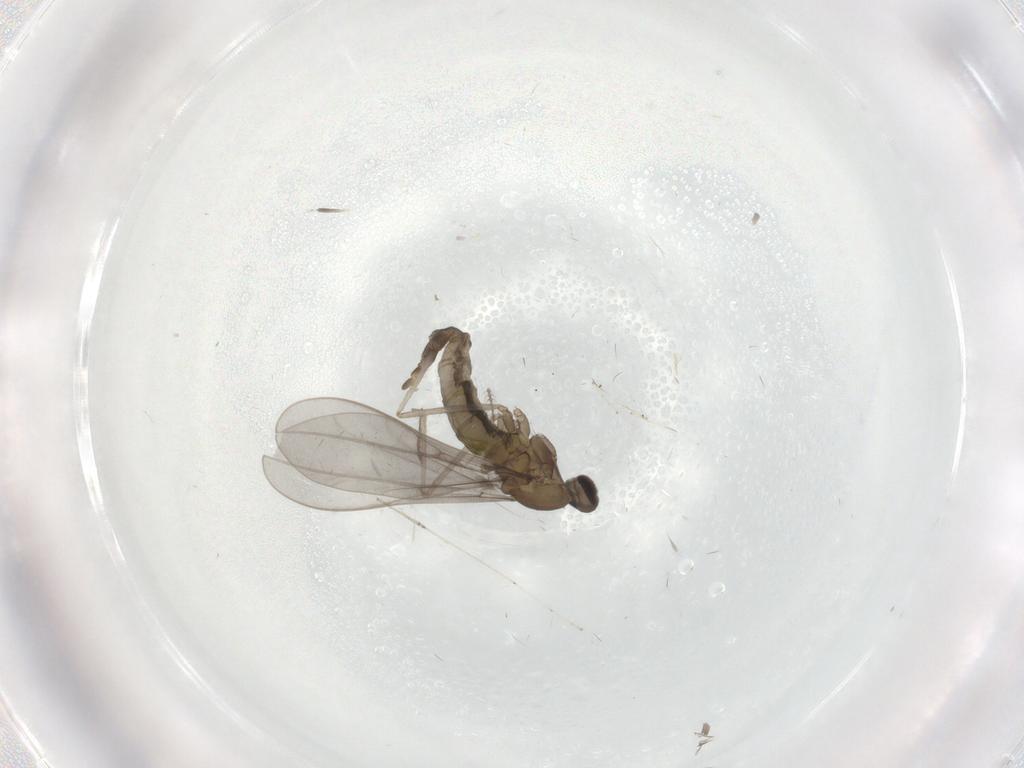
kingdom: Animalia
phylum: Arthropoda
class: Insecta
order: Diptera
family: Cecidomyiidae
